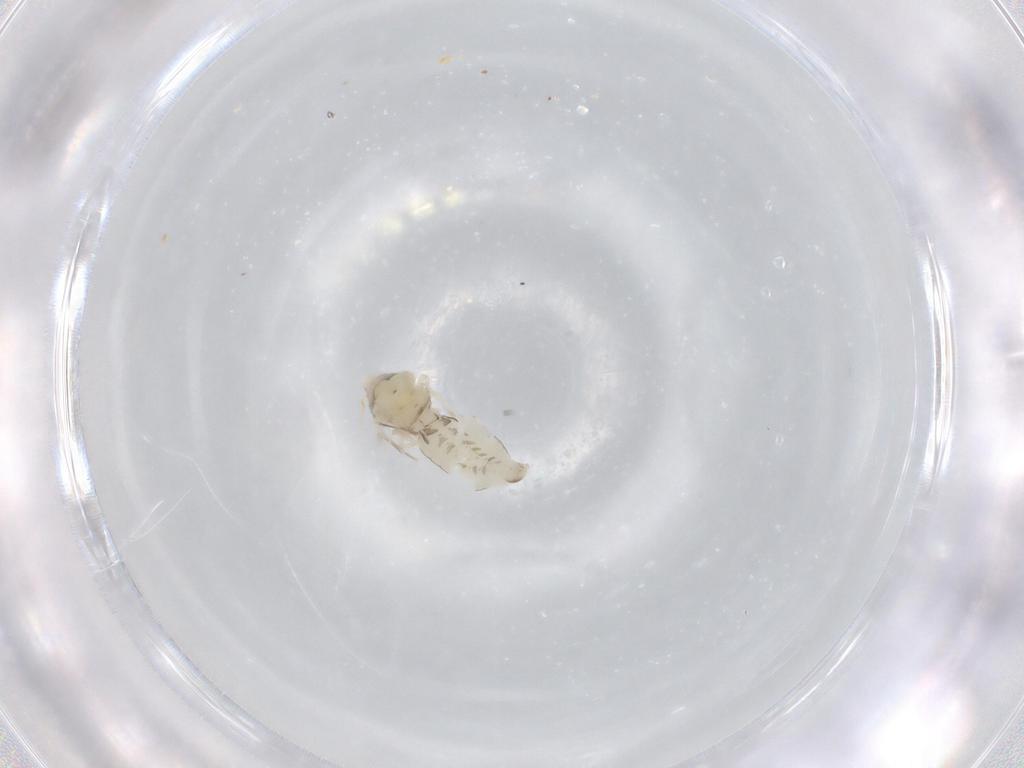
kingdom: Animalia
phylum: Arthropoda
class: Insecta
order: Hemiptera
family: Aleyrodidae
